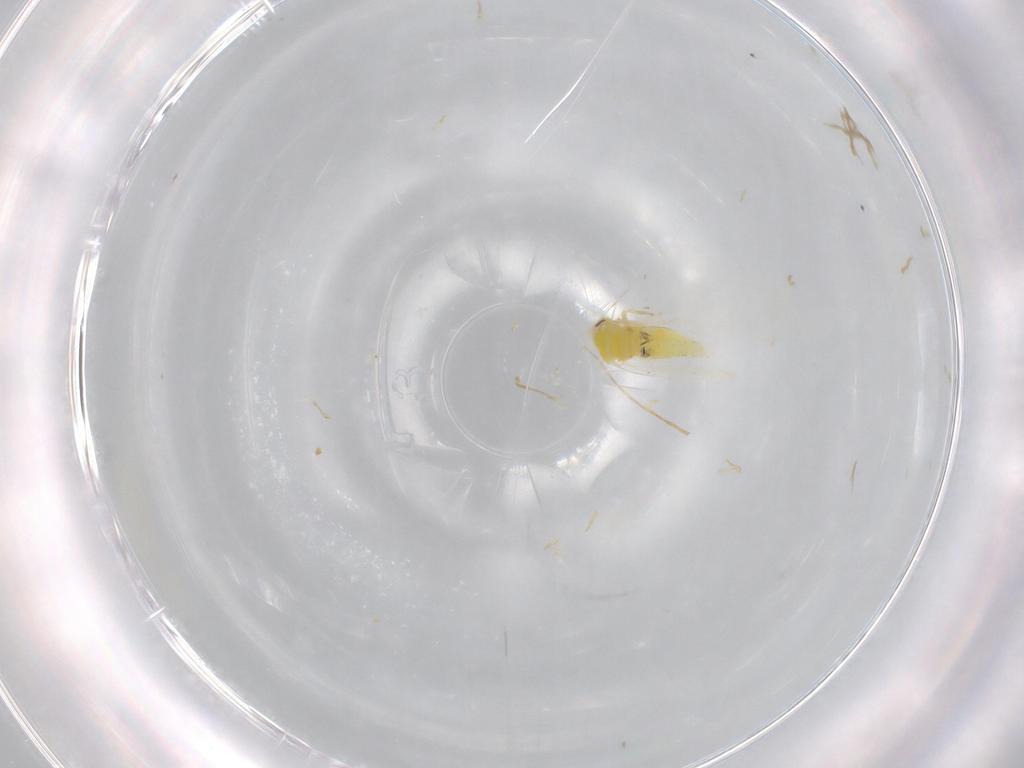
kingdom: Animalia
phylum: Arthropoda
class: Insecta
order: Hemiptera
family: Aleyrodidae
